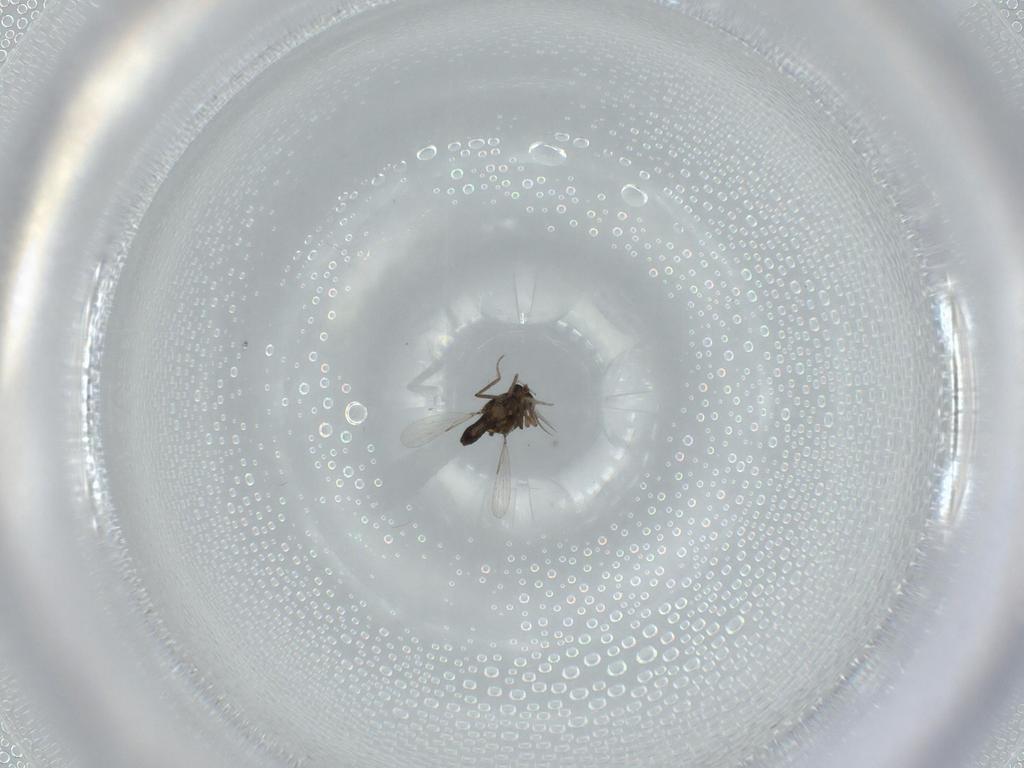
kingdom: Animalia
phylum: Arthropoda
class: Insecta
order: Diptera
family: Ceratopogonidae
